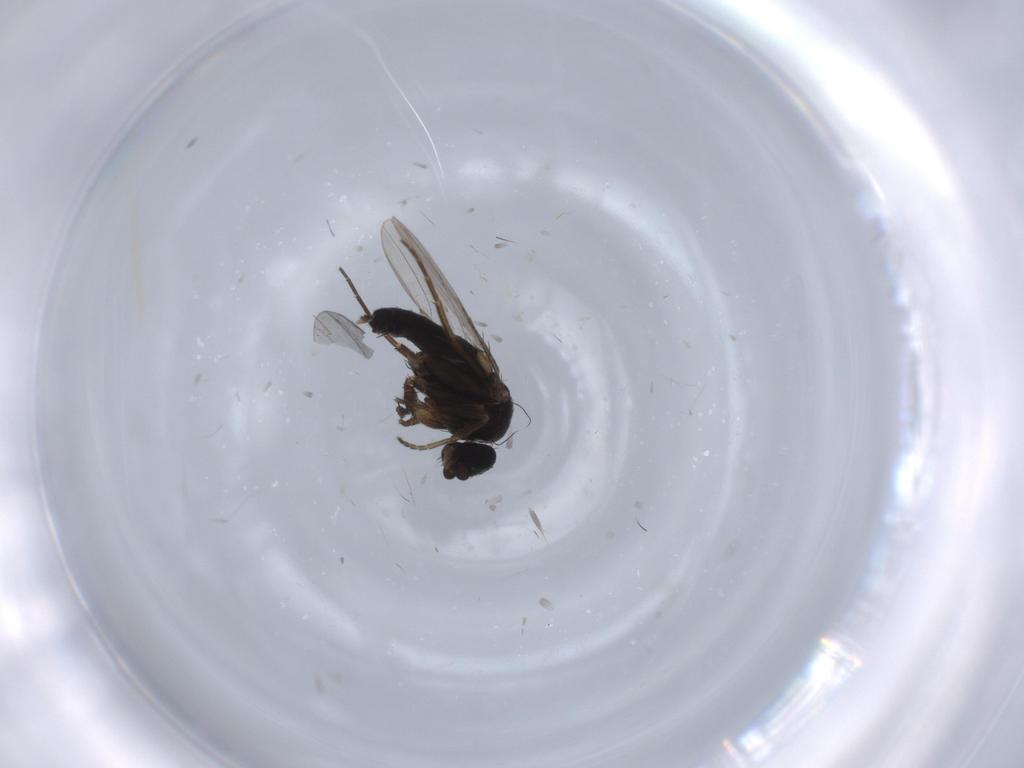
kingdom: Animalia
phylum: Arthropoda
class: Insecta
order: Diptera
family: Phoridae
